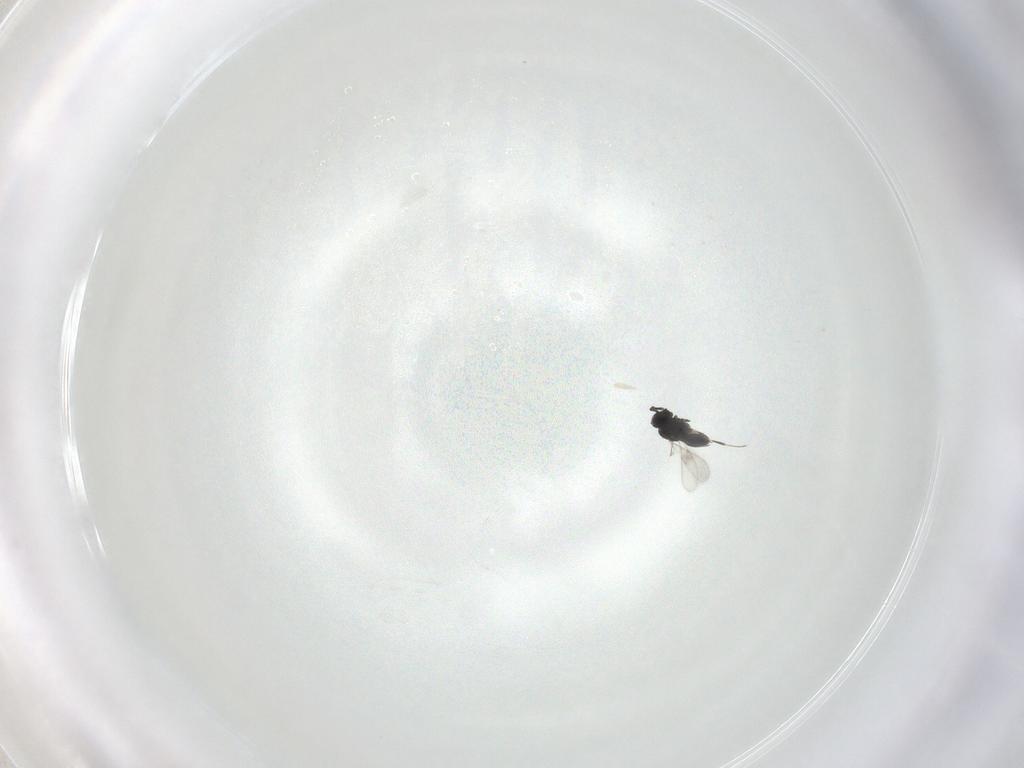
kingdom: Animalia
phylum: Arthropoda
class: Insecta
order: Hymenoptera
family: Scelionidae
